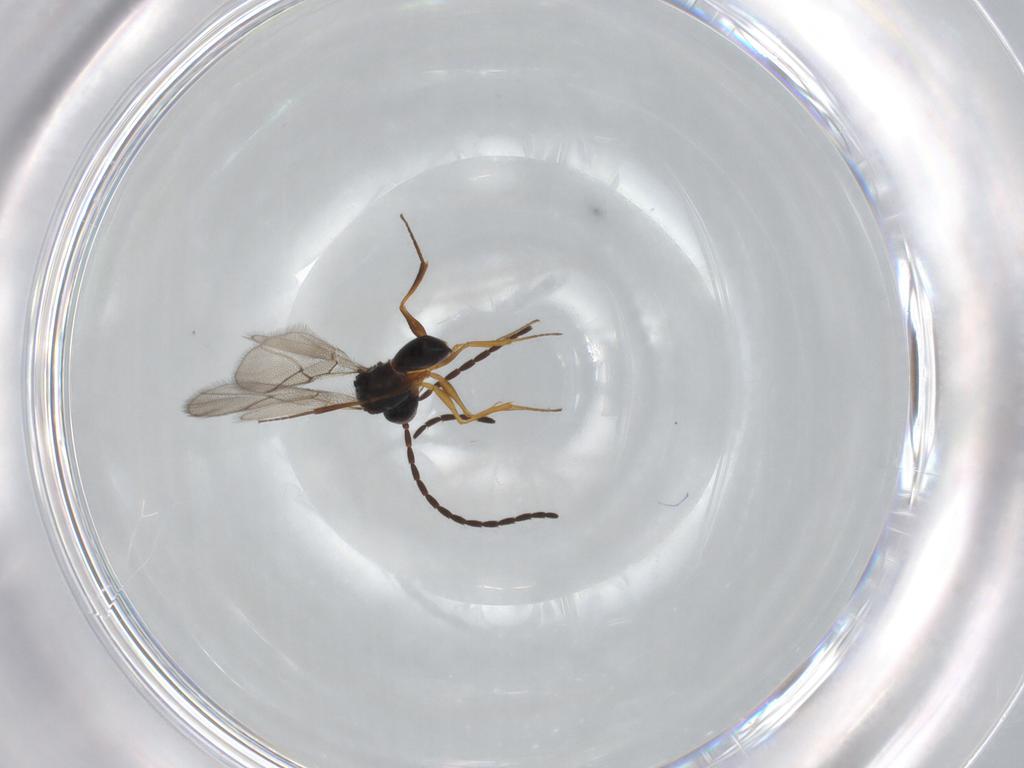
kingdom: Animalia
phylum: Arthropoda
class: Insecta
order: Hymenoptera
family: Figitidae
